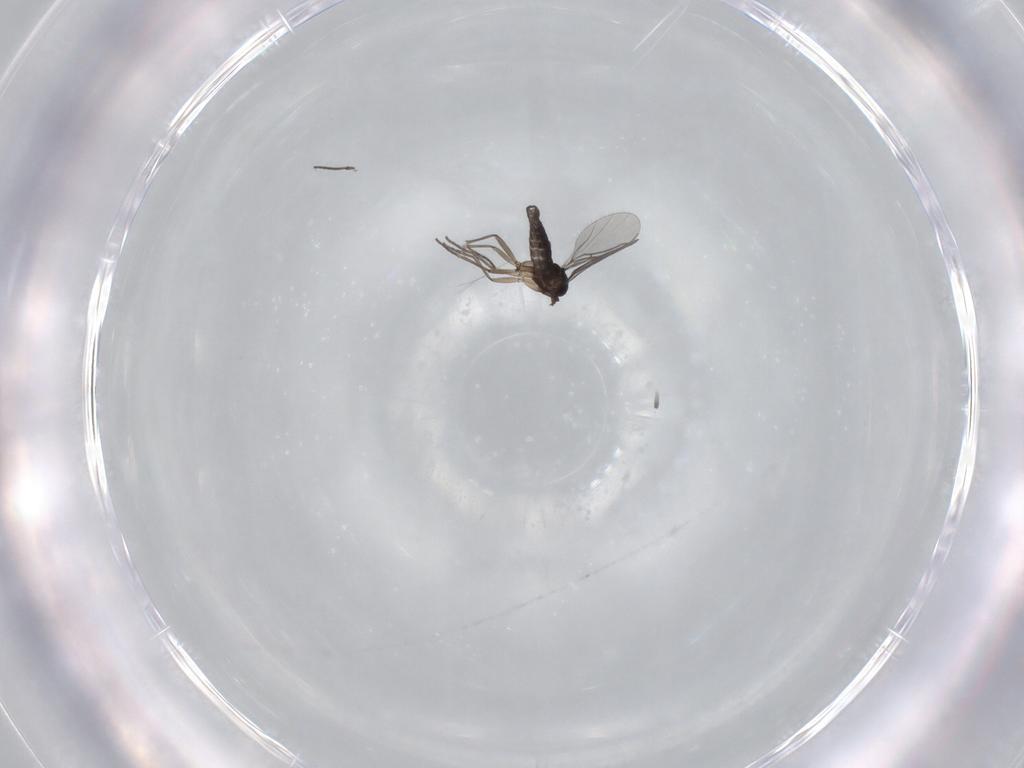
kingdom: Animalia
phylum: Arthropoda
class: Insecta
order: Diptera
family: Sciaridae
